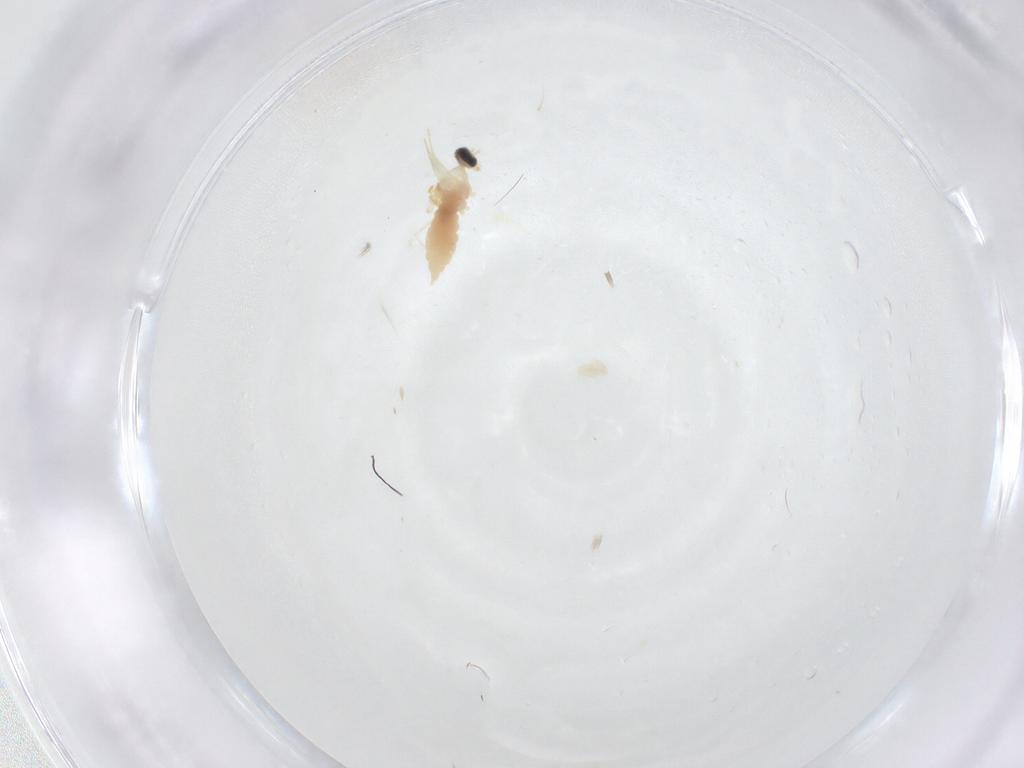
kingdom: Animalia
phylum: Arthropoda
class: Insecta
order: Diptera
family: Cecidomyiidae
